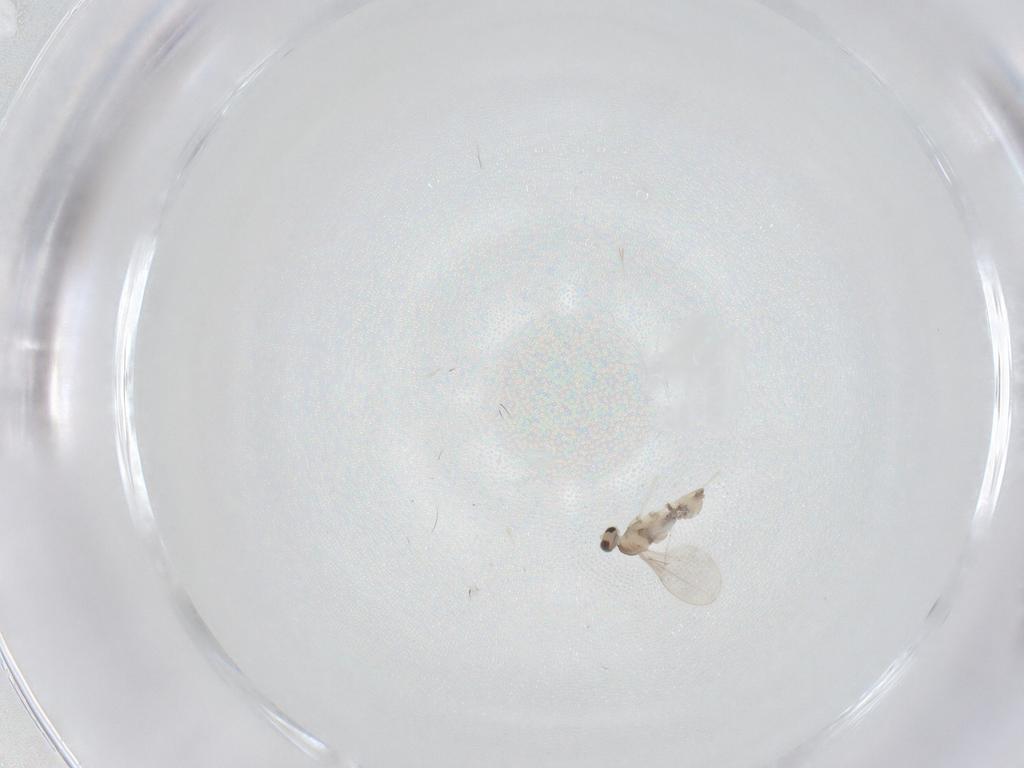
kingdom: Animalia
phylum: Arthropoda
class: Insecta
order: Diptera
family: Cecidomyiidae
